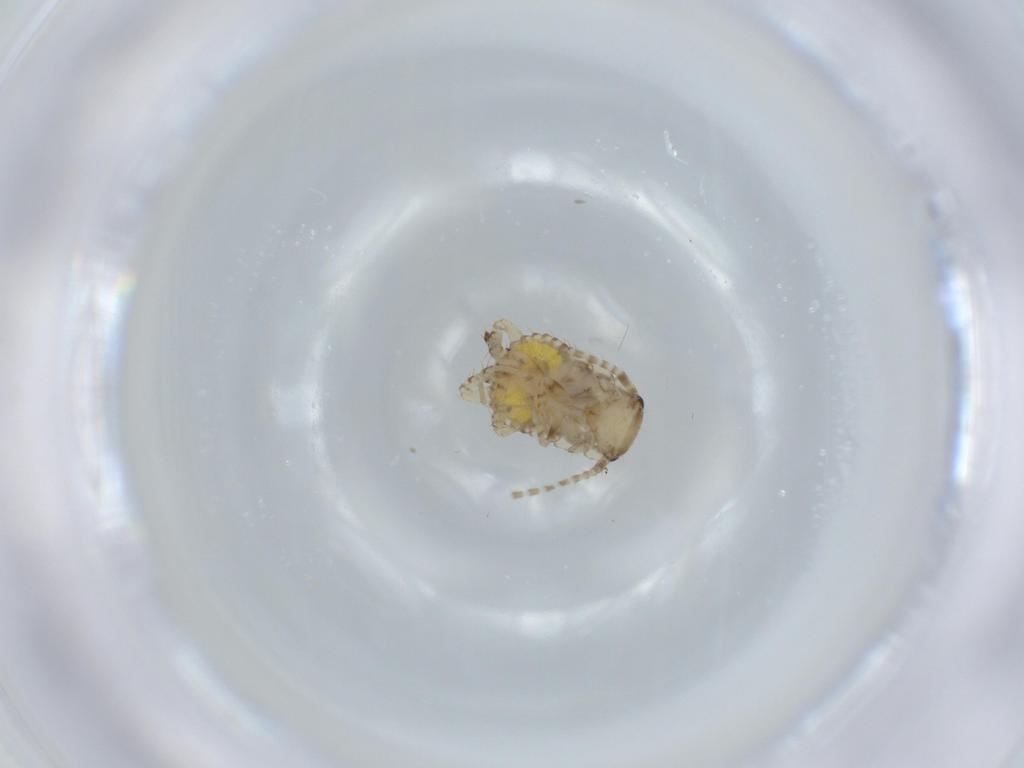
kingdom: Animalia
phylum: Arthropoda
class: Insecta
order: Blattodea
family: Ectobiidae
